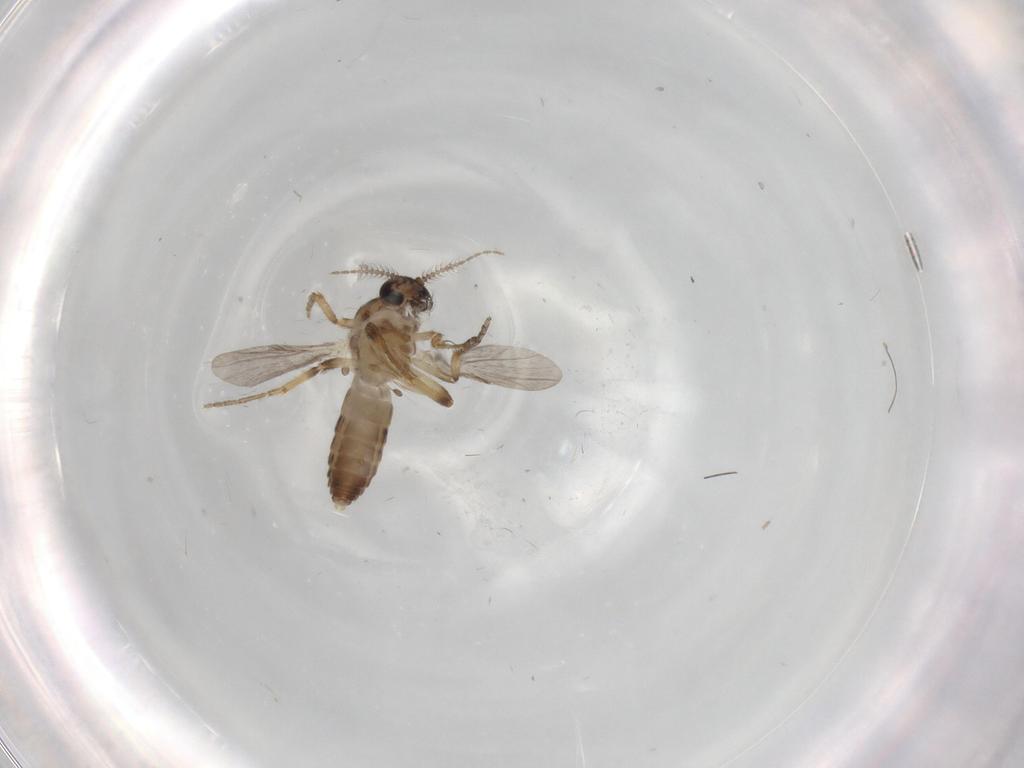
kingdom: Animalia
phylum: Arthropoda
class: Insecta
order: Diptera
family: Ceratopogonidae
